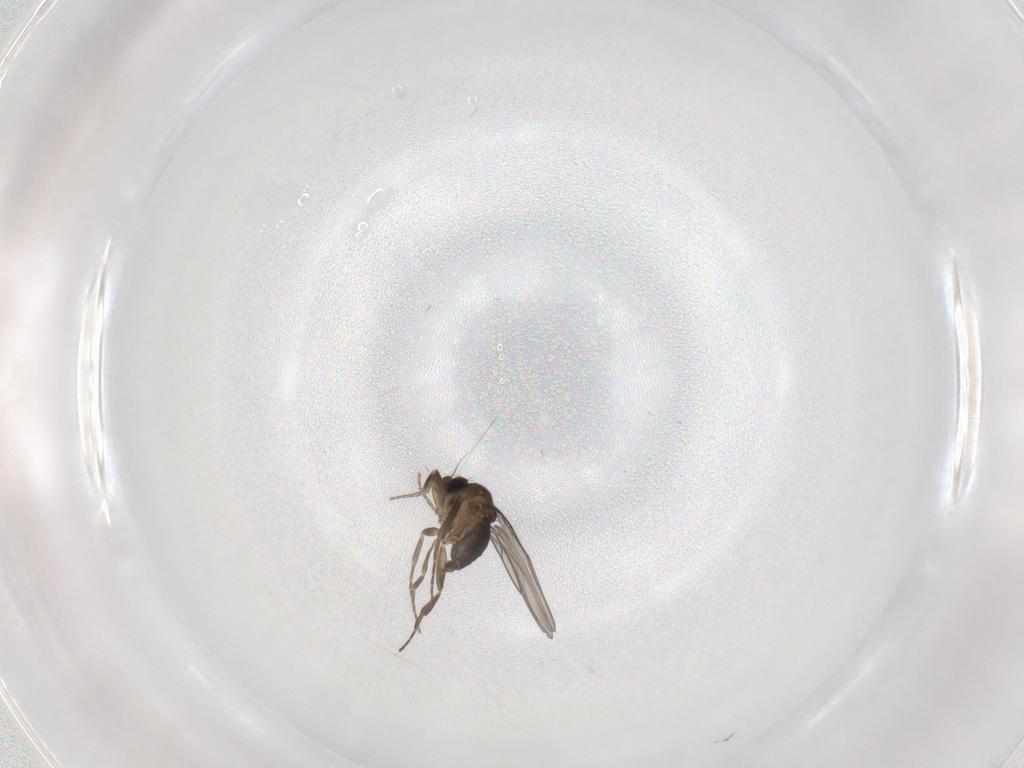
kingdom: Animalia
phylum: Arthropoda
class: Insecta
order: Diptera
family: Phoridae
